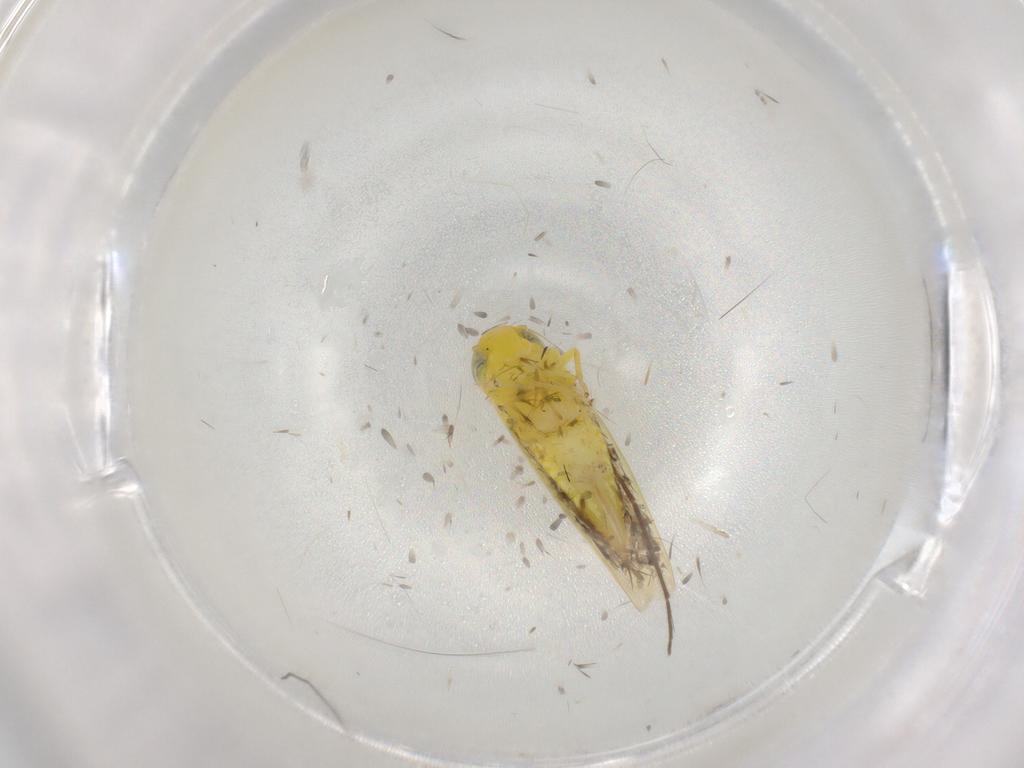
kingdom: Animalia
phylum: Arthropoda
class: Insecta
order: Hemiptera
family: Cicadellidae
